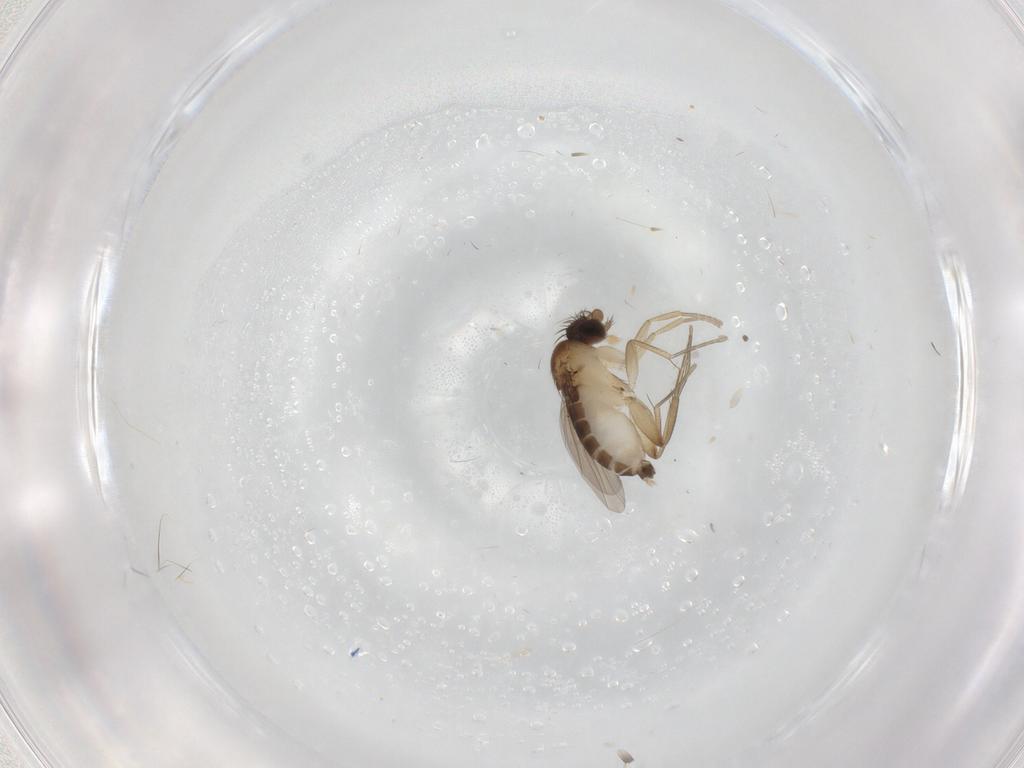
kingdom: Animalia
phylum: Arthropoda
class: Insecta
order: Diptera
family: Phoridae
